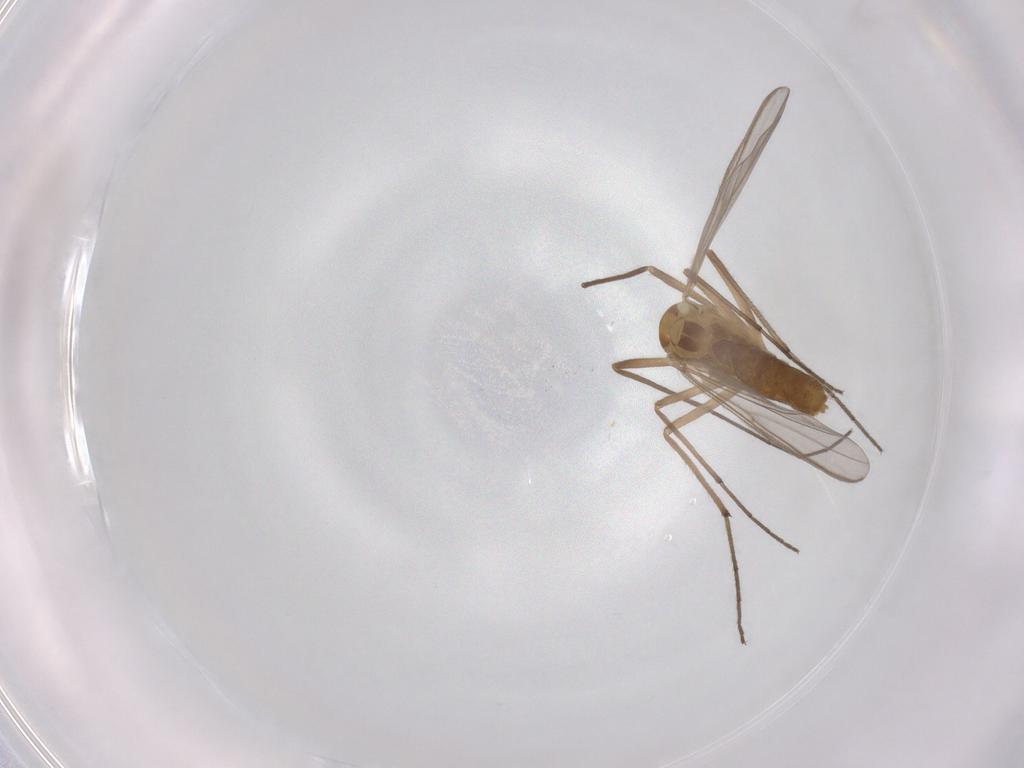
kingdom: Animalia
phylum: Arthropoda
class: Insecta
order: Diptera
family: Chironomidae
